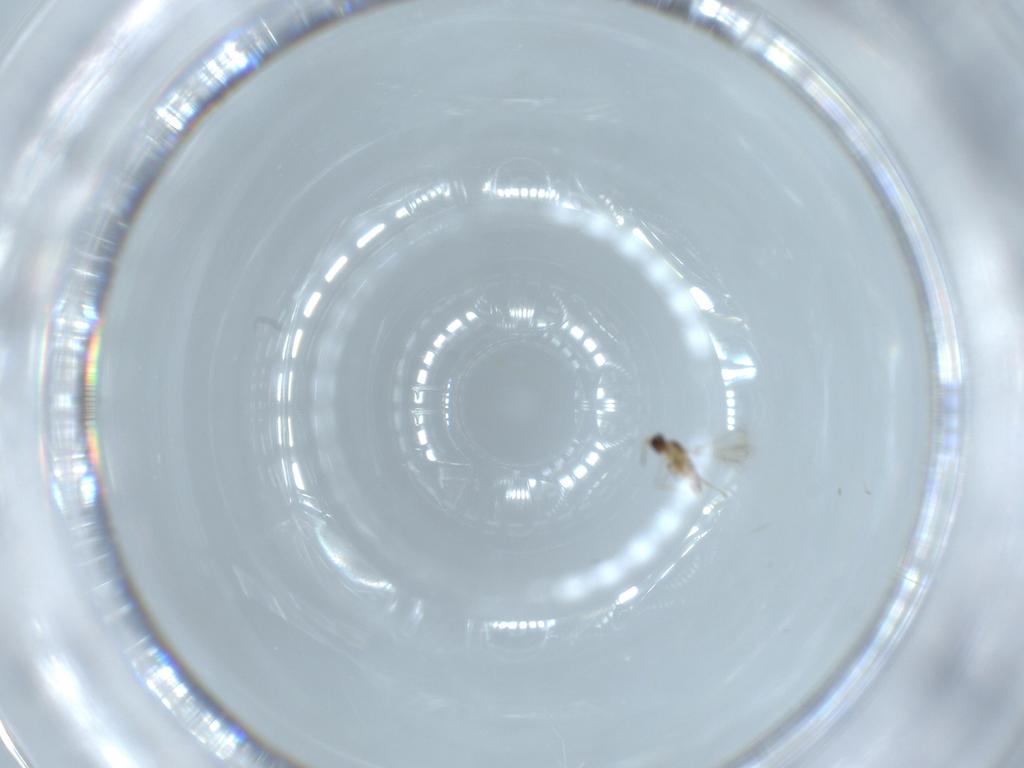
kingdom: Animalia
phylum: Arthropoda
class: Insecta
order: Hymenoptera
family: Mymaridae
